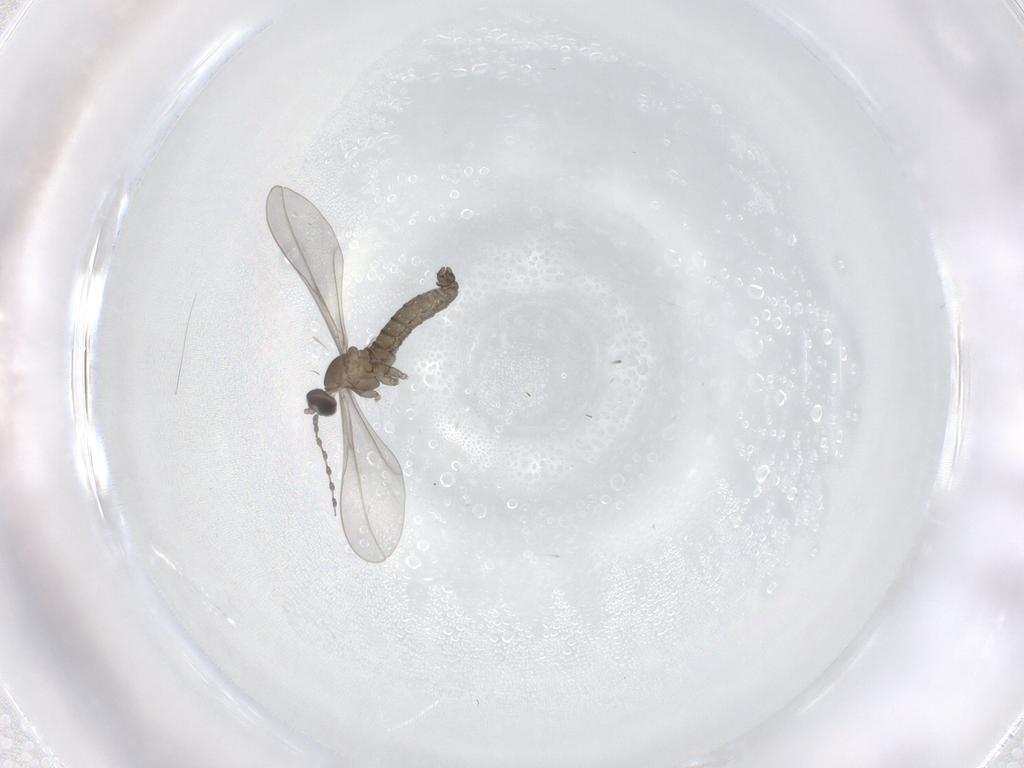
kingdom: Animalia
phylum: Arthropoda
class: Insecta
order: Diptera
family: Cecidomyiidae
